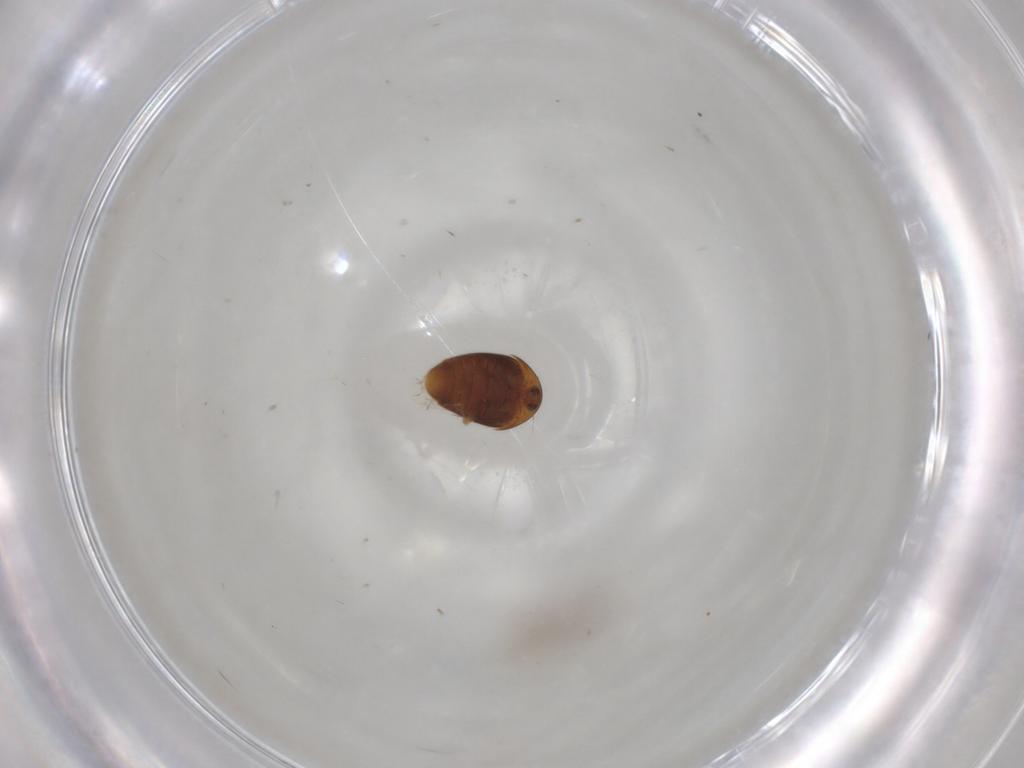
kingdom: Animalia
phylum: Arthropoda
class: Insecta
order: Coleoptera
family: Corylophidae
